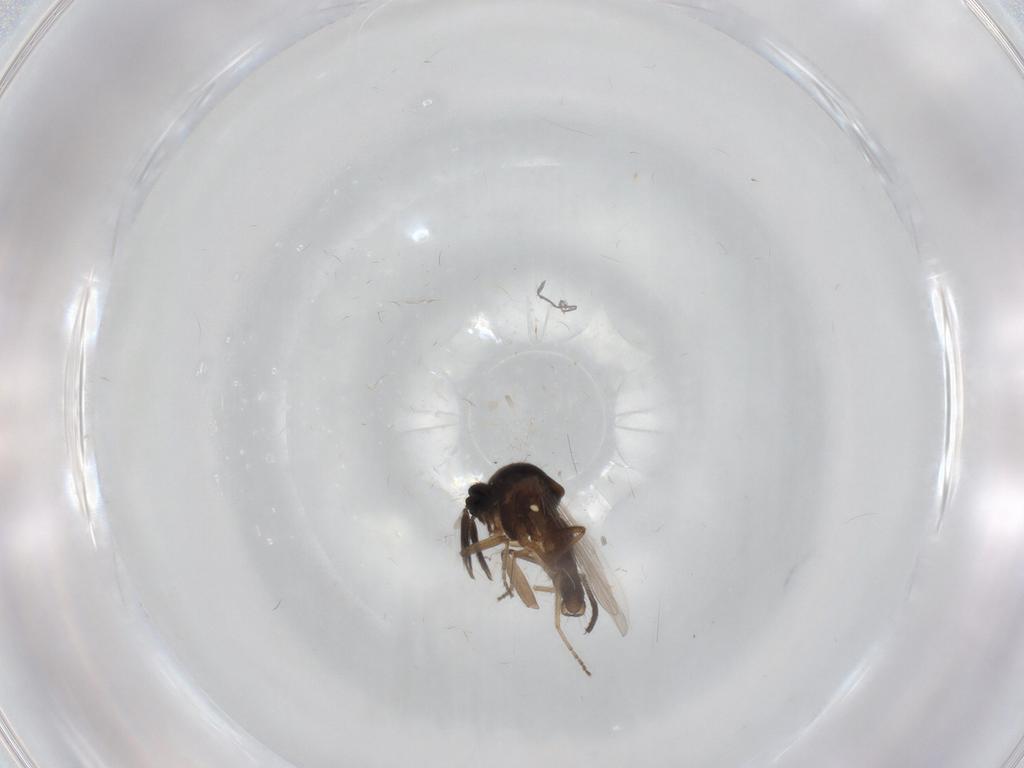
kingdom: Animalia
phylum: Arthropoda
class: Insecta
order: Diptera
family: Ceratopogonidae
